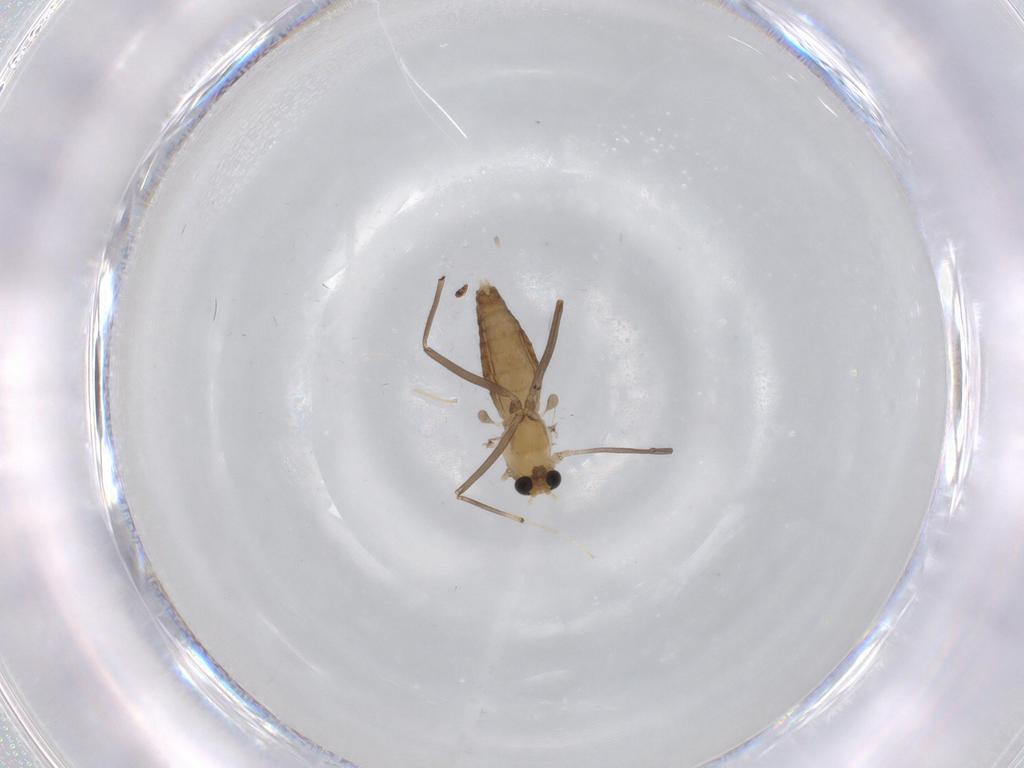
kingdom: Animalia
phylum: Arthropoda
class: Insecta
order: Diptera
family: Chironomidae
